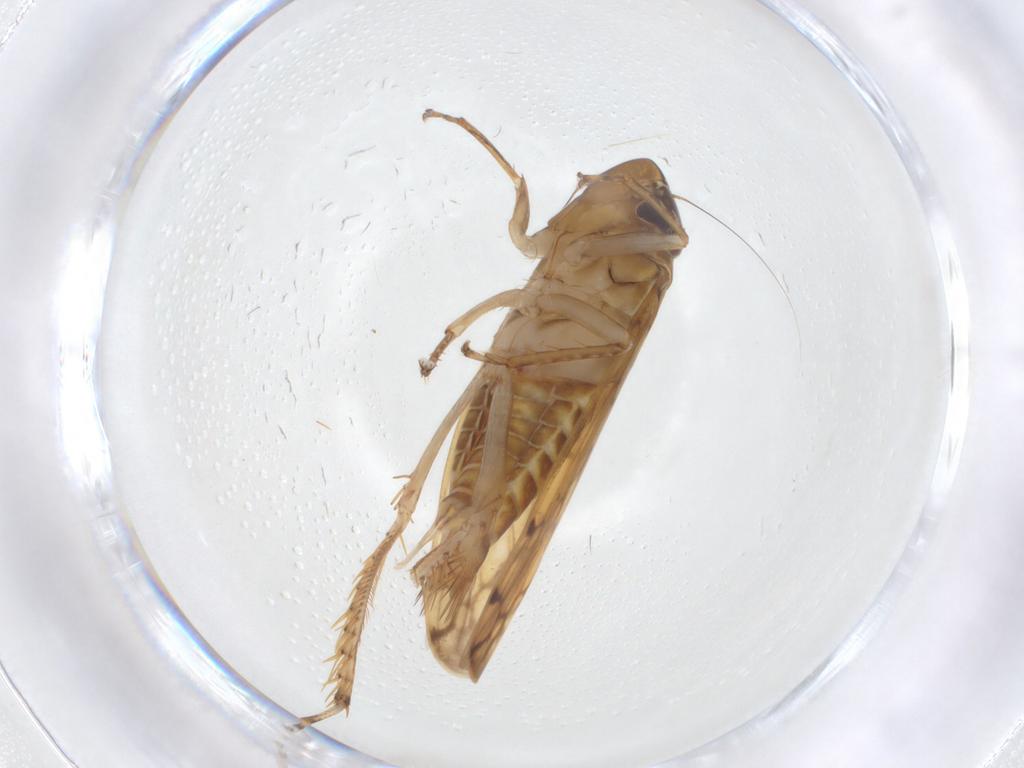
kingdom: Animalia
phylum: Arthropoda
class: Insecta
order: Hemiptera
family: Cicadellidae
